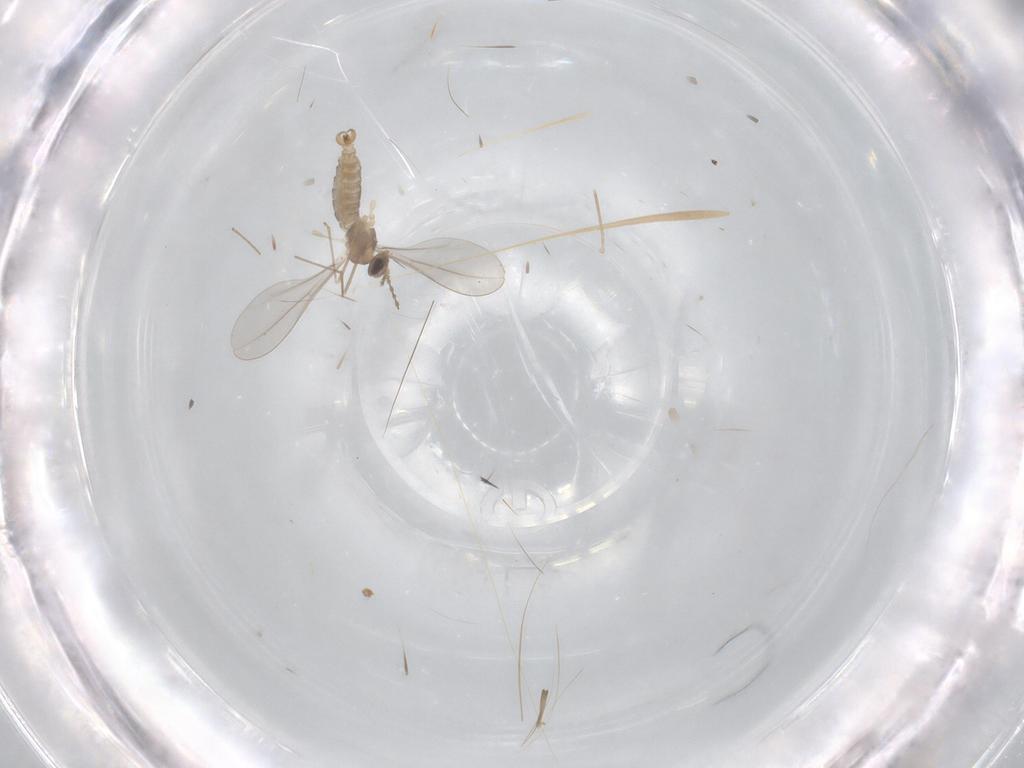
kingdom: Animalia
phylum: Arthropoda
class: Insecta
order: Diptera
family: Cecidomyiidae
